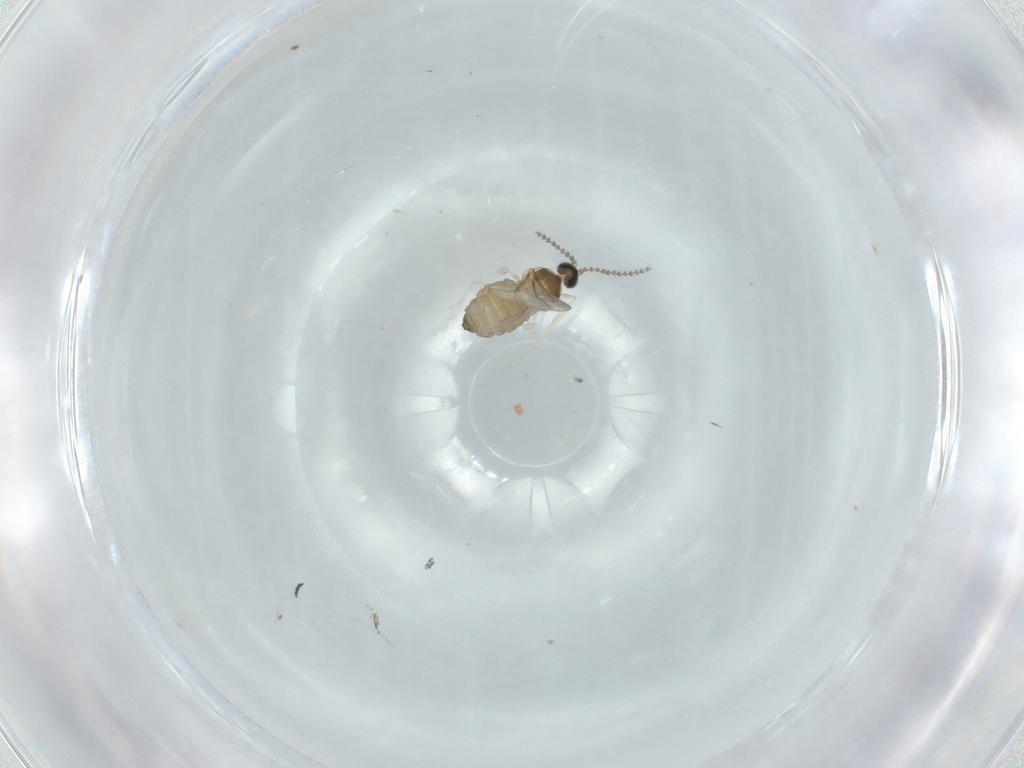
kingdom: Animalia
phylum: Arthropoda
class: Insecta
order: Diptera
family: Cecidomyiidae
